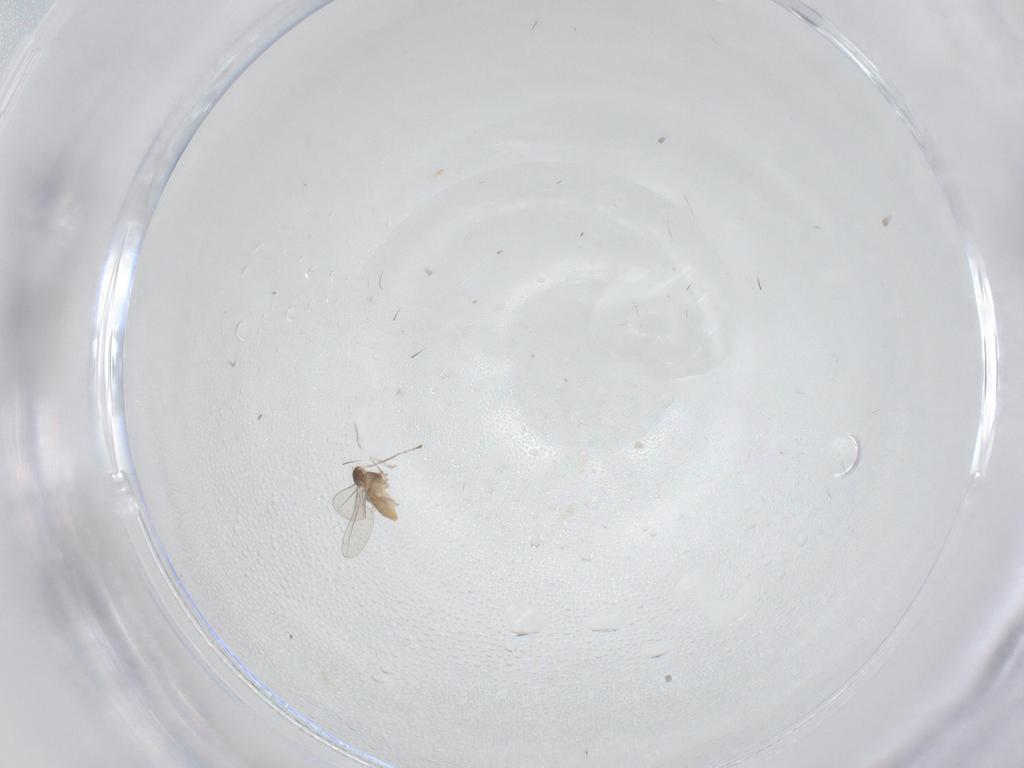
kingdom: Animalia
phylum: Arthropoda
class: Insecta
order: Diptera
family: Cecidomyiidae
